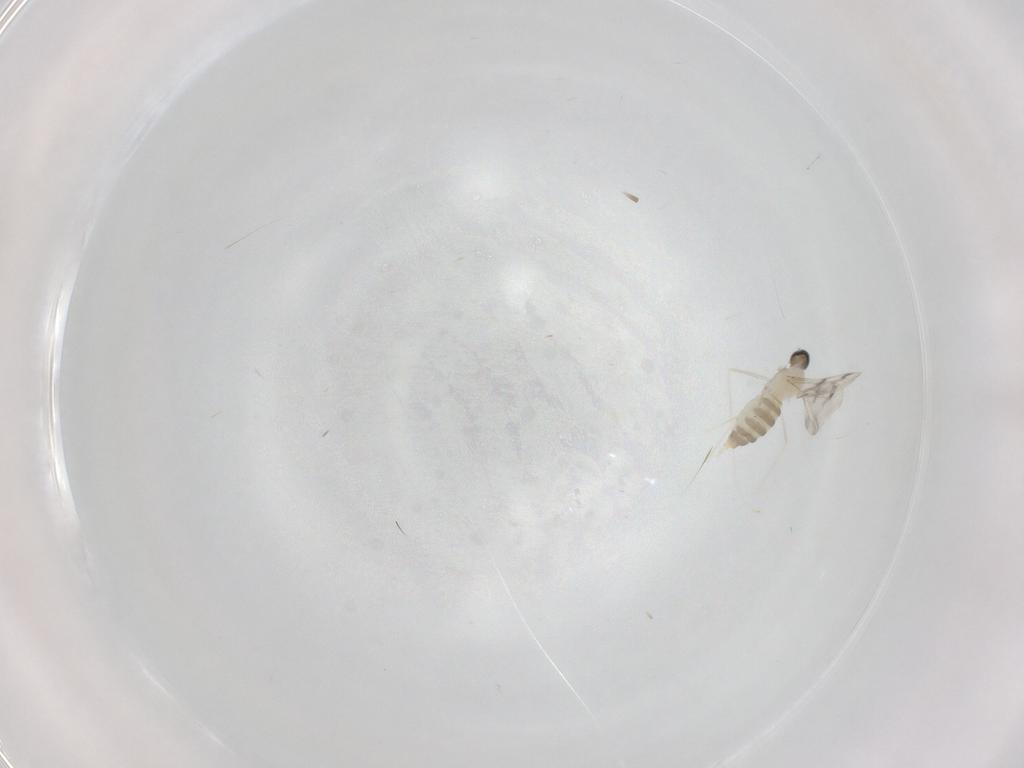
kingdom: Animalia
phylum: Arthropoda
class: Insecta
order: Diptera
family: Cecidomyiidae
